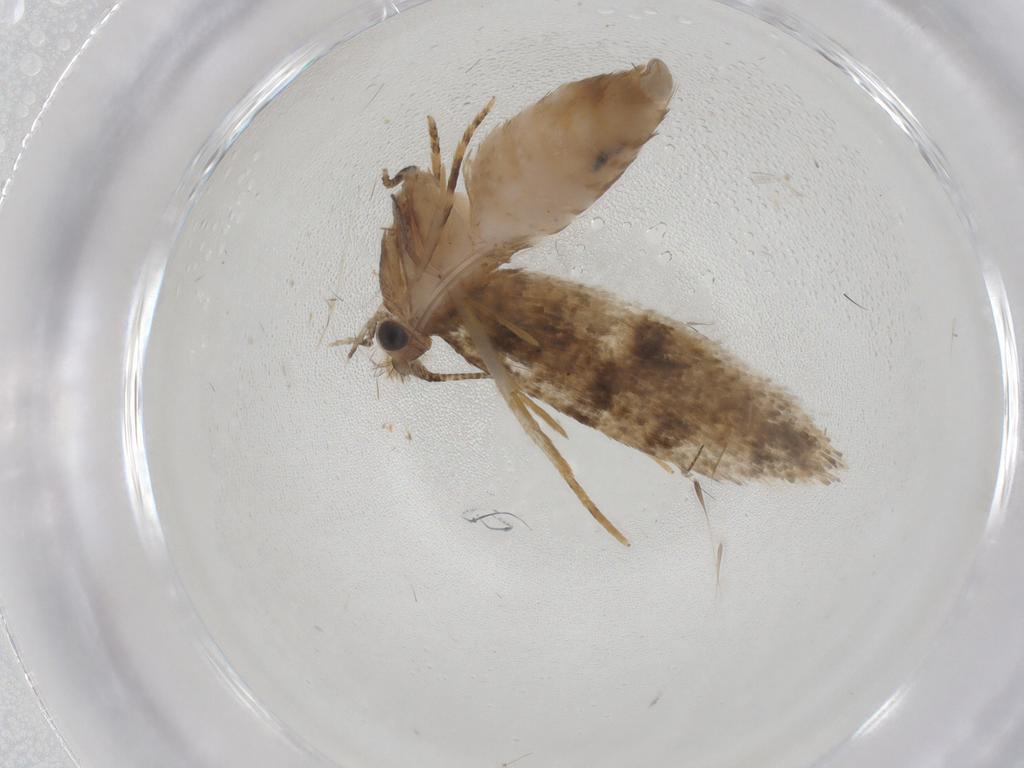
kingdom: Animalia
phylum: Arthropoda
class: Insecta
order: Lepidoptera
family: Tineidae
